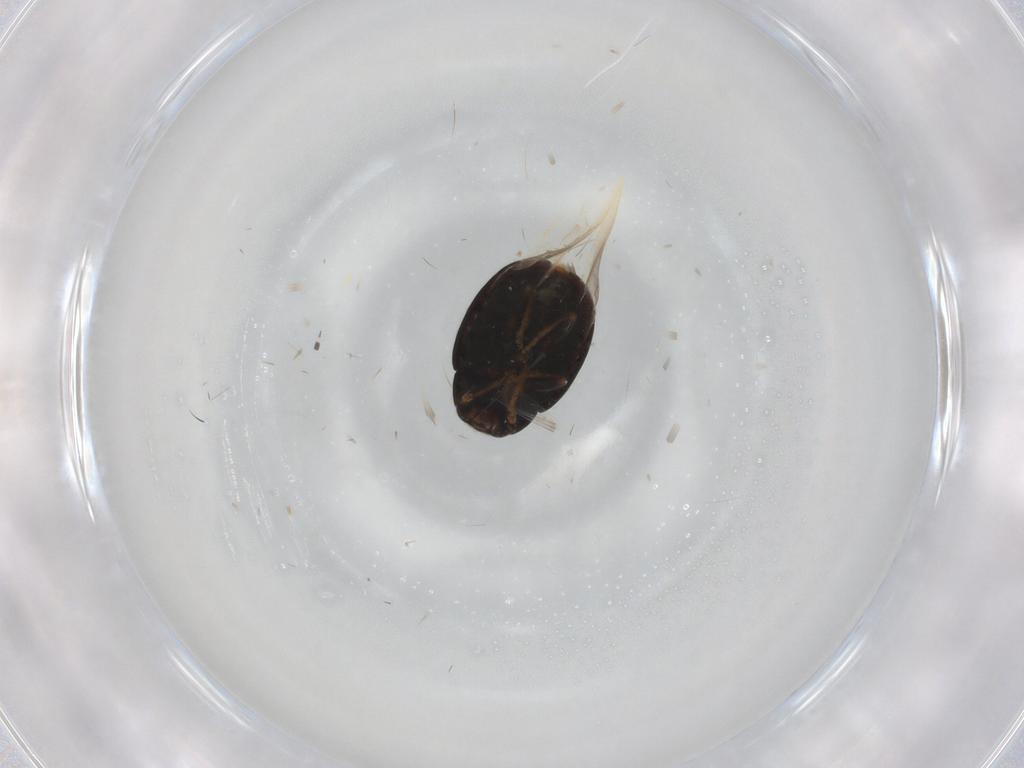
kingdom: Animalia
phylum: Arthropoda
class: Insecta
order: Coleoptera
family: Coccinellidae
